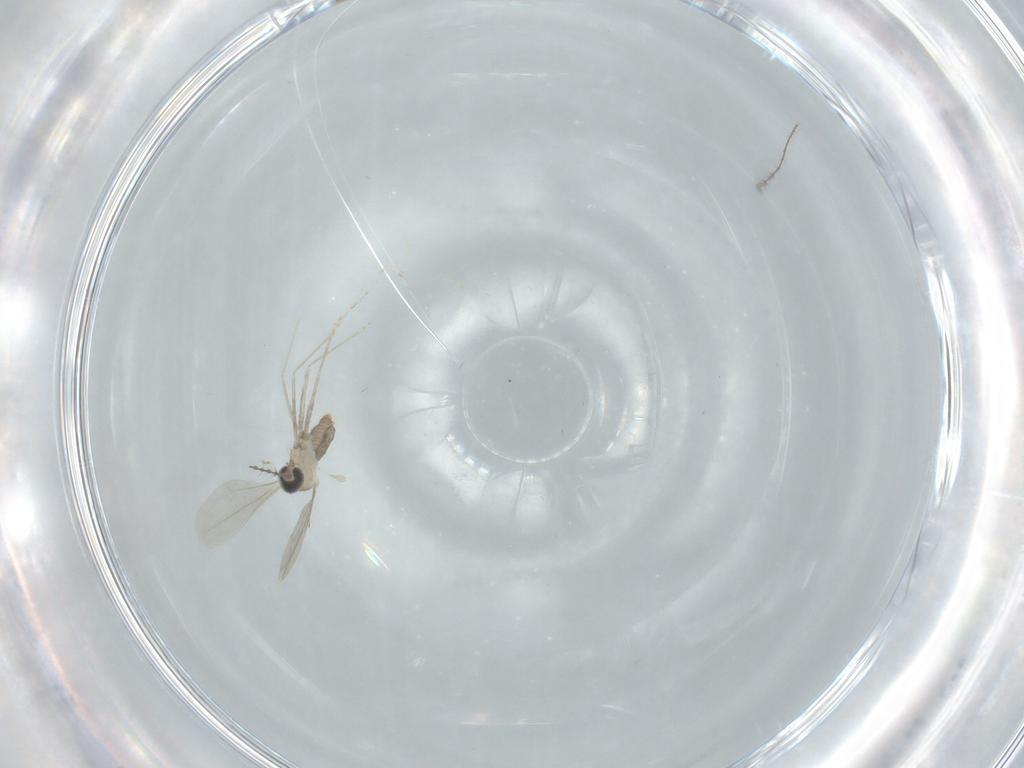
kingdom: Animalia
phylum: Arthropoda
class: Insecta
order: Diptera
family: Cecidomyiidae
